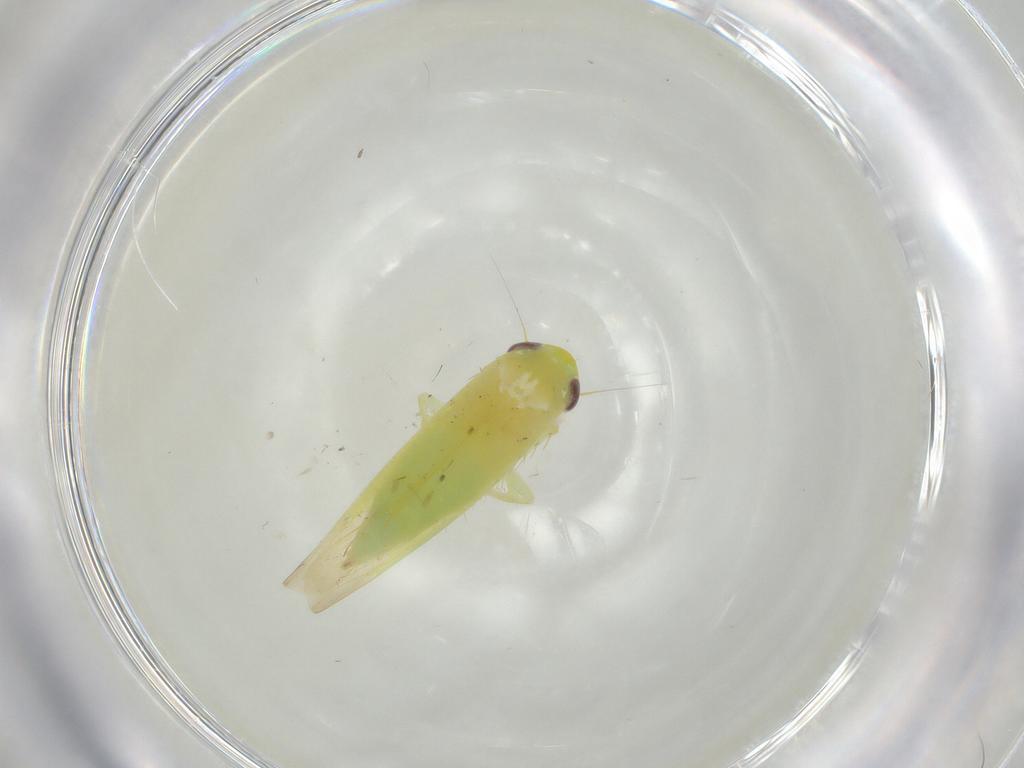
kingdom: Animalia
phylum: Arthropoda
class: Insecta
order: Hemiptera
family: Cicadellidae
